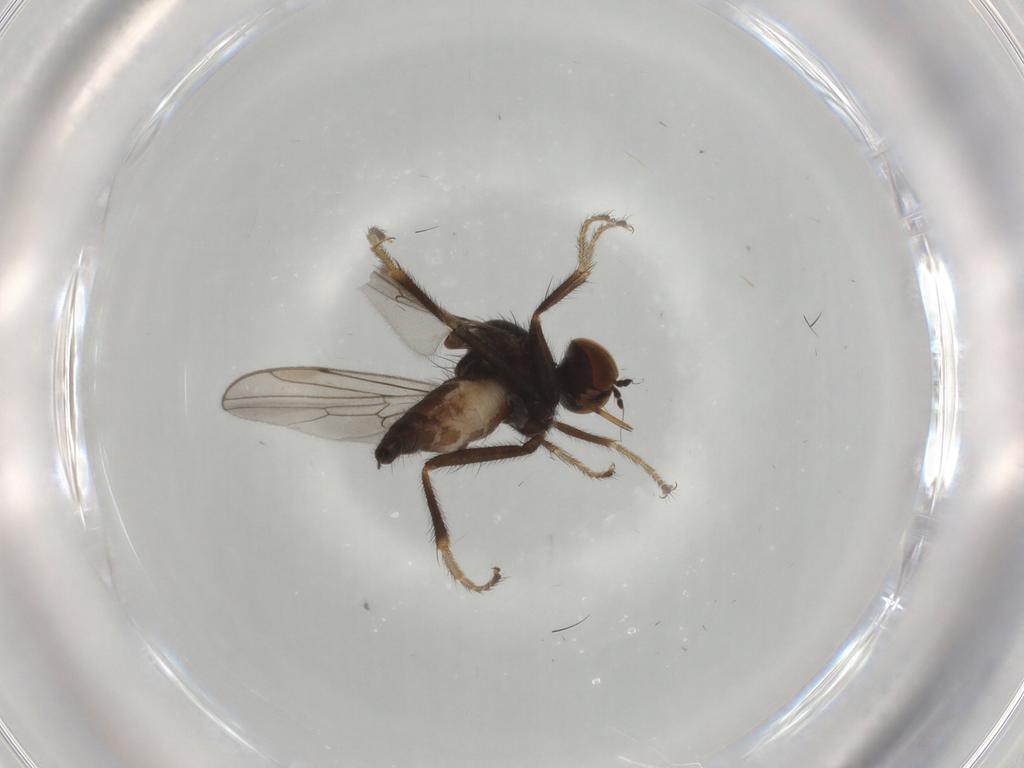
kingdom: Animalia
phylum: Arthropoda
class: Insecta
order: Diptera
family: Hybotidae
